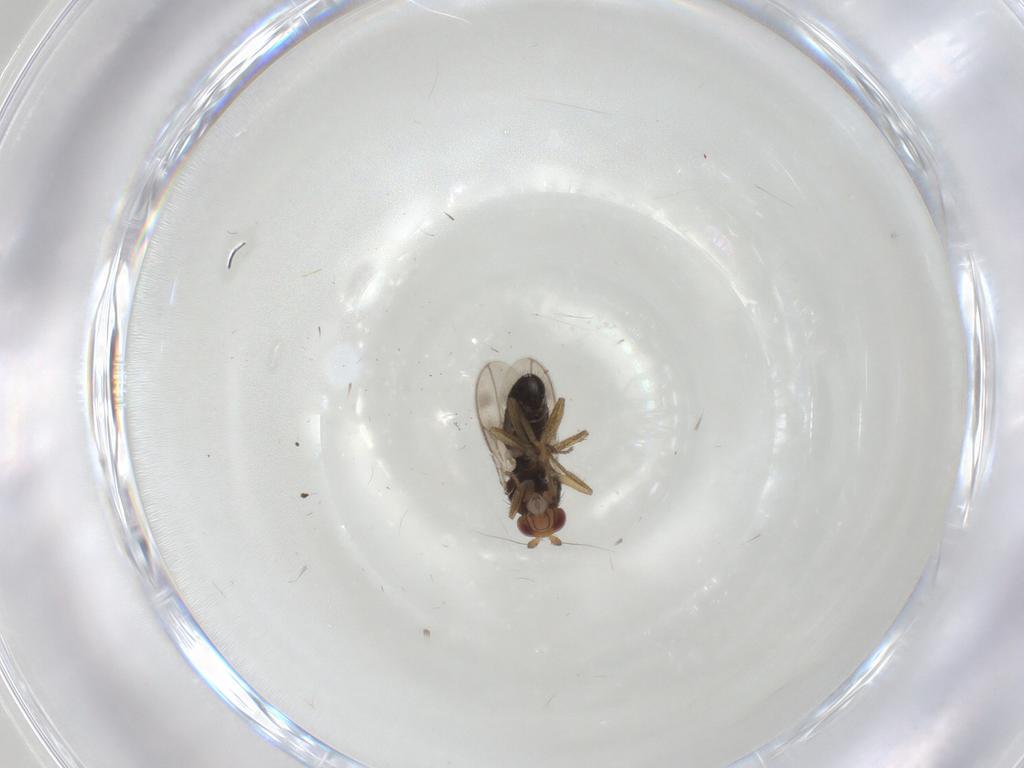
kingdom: Animalia
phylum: Arthropoda
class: Insecta
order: Diptera
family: Sphaeroceridae
